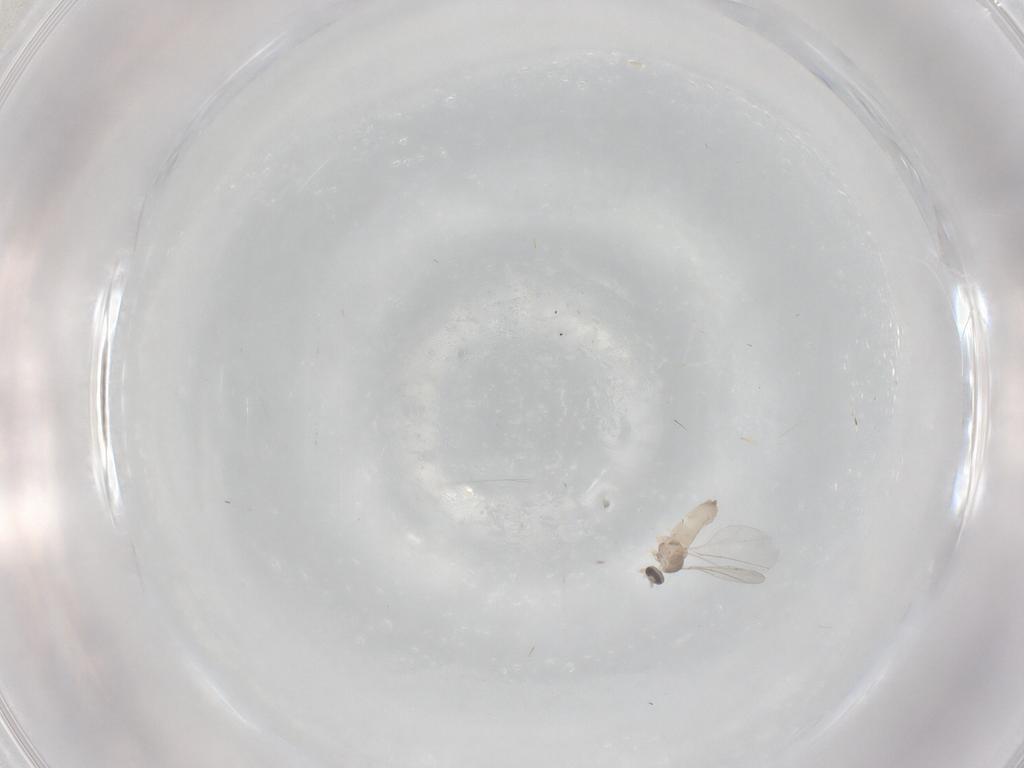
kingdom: Animalia
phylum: Arthropoda
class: Insecta
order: Diptera
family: Cecidomyiidae
